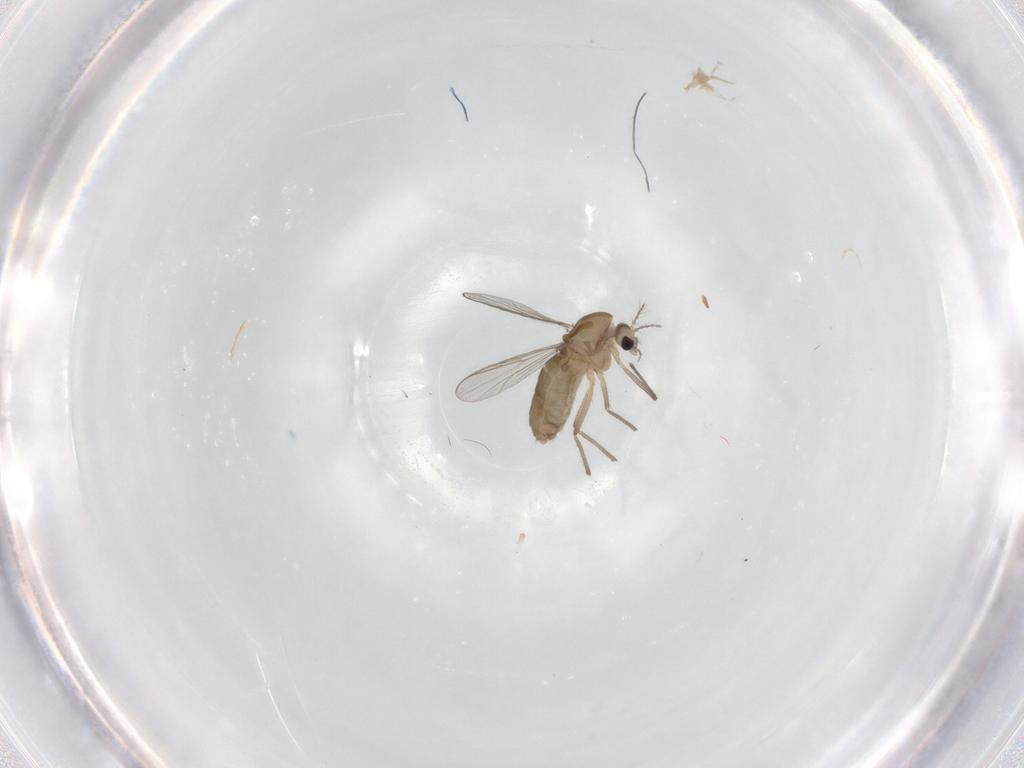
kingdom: Animalia
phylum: Arthropoda
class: Insecta
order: Diptera
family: Chironomidae
